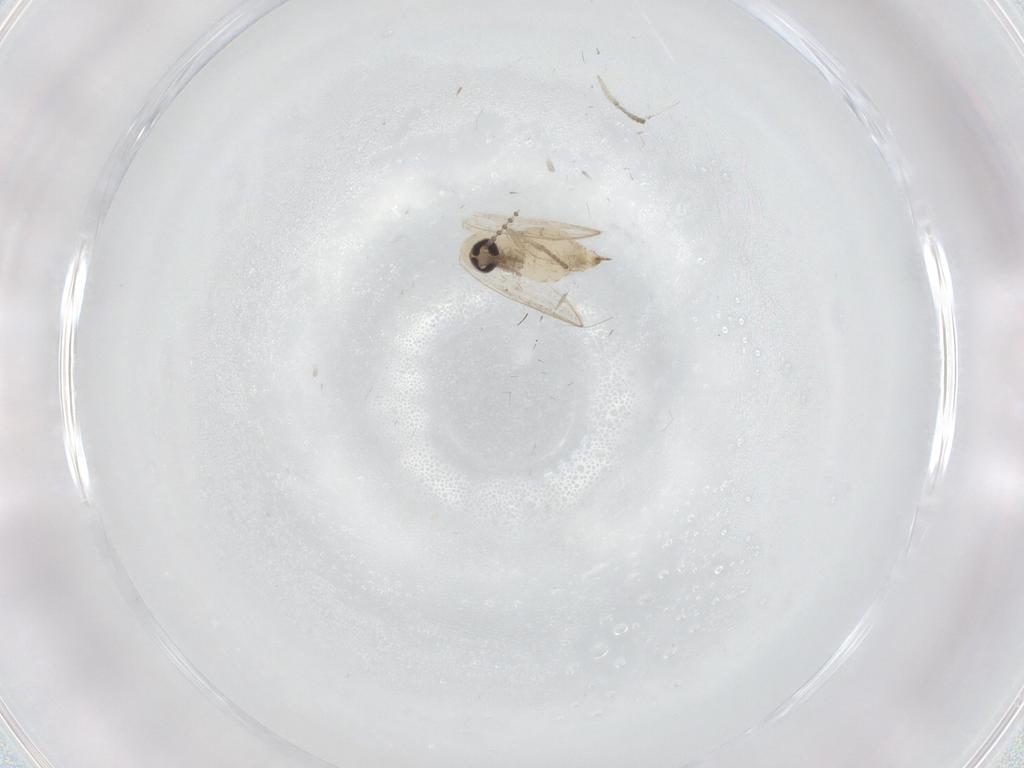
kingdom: Animalia
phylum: Arthropoda
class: Insecta
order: Diptera
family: Psychodidae
